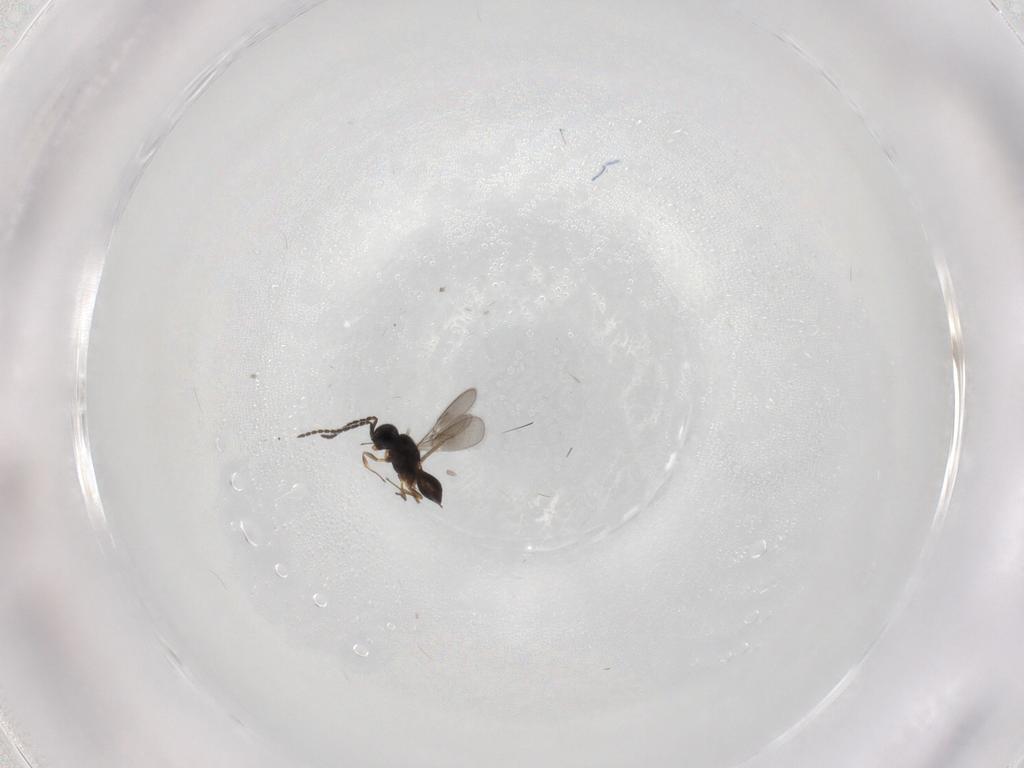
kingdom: Animalia
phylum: Arthropoda
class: Insecta
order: Hymenoptera
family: Scelionidae
